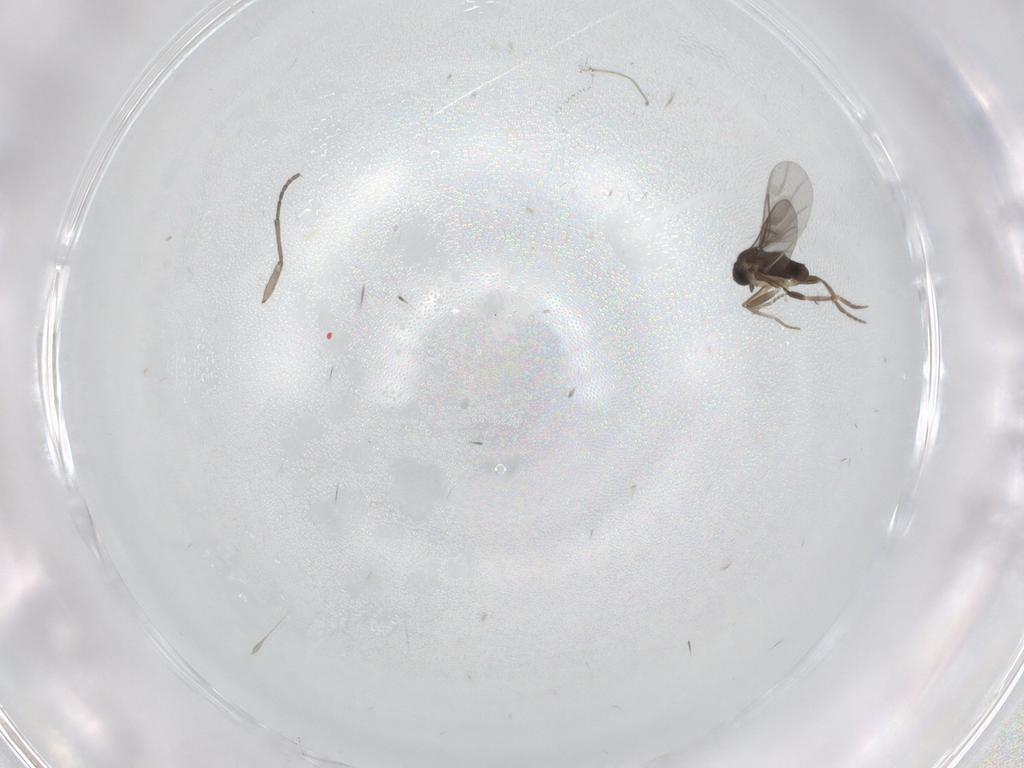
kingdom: Animalia
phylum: Arthropoda
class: Insecta
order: Diptera
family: Sciaridae
